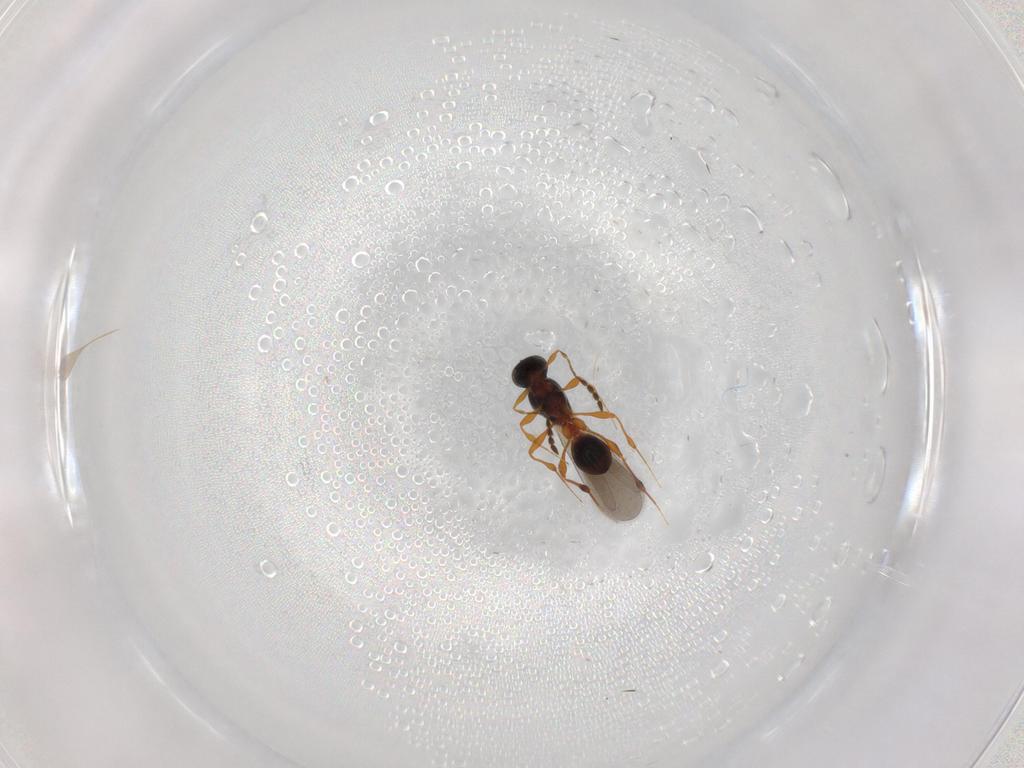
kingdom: Animalia
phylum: Arthropoda
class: Insecta
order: Hymenoptera
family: Platygastridae
